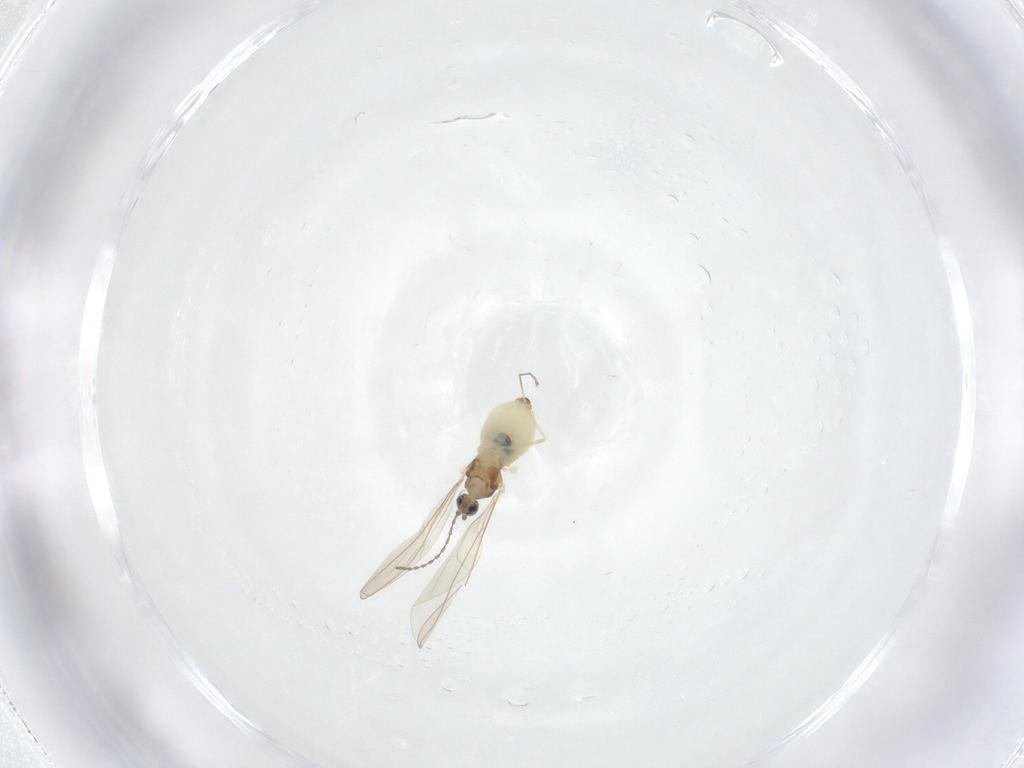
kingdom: Animalia
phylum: Arthropoda
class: Insecta
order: Diptera
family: Cecidomyiidae
